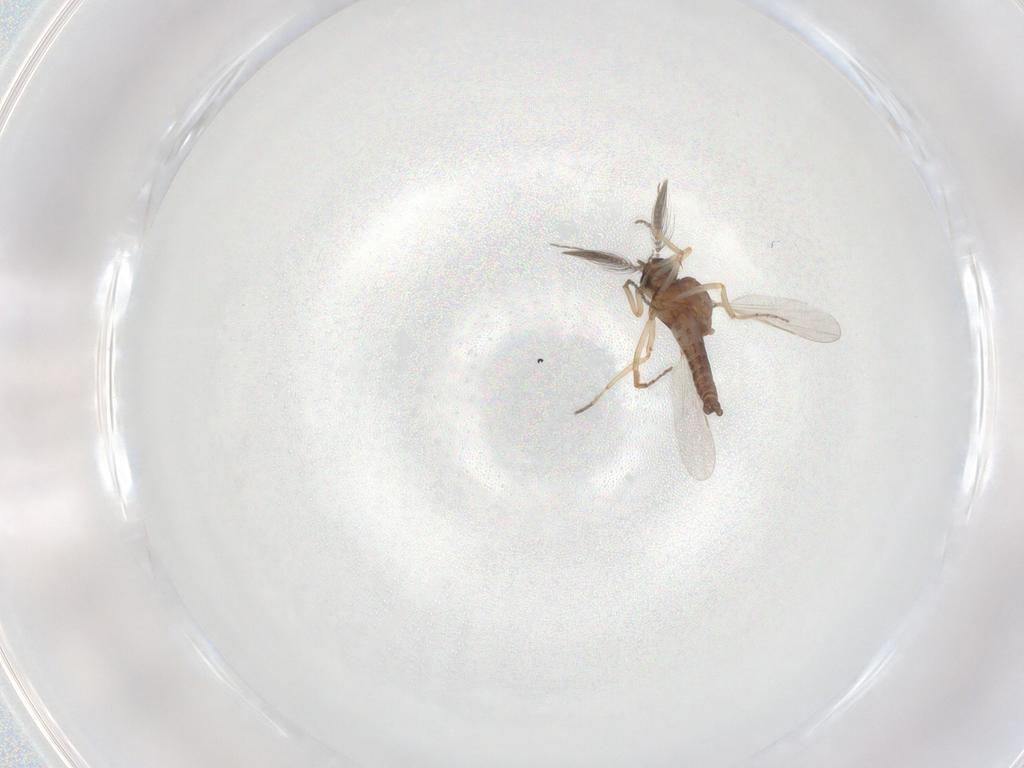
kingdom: Animalia
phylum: Arthropoda
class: Insecta
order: Diptera
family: Ceratopogonidae
